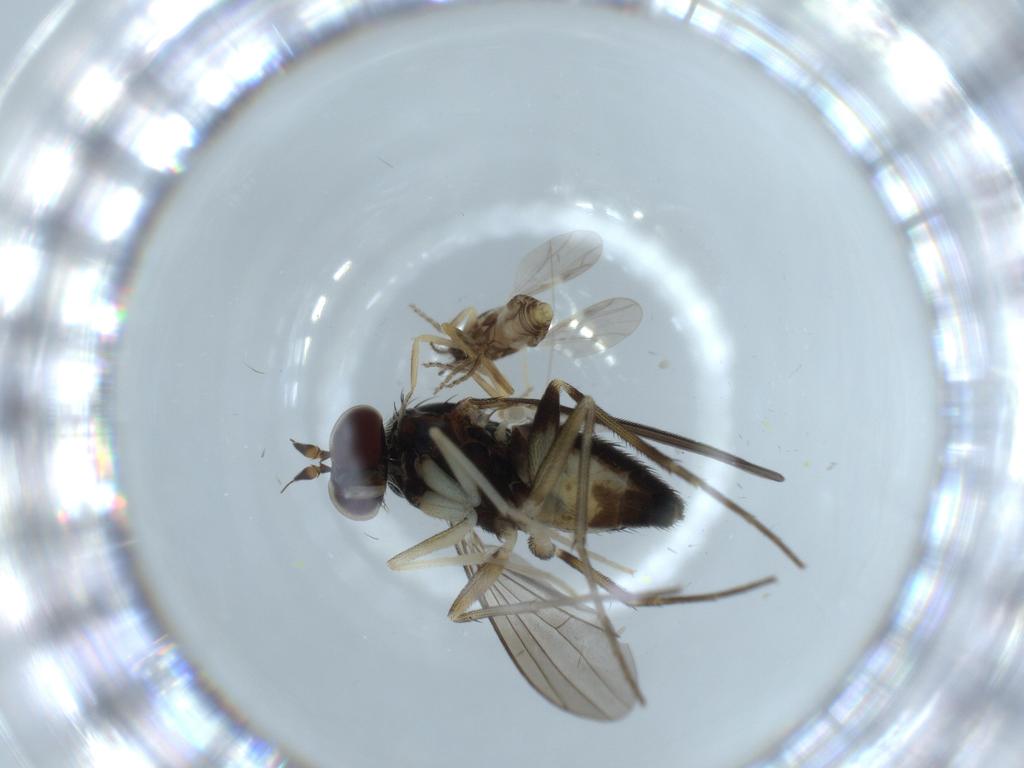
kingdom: Animalia
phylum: Arthropoda
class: Insecta
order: Diptera
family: Dolichopodidae
